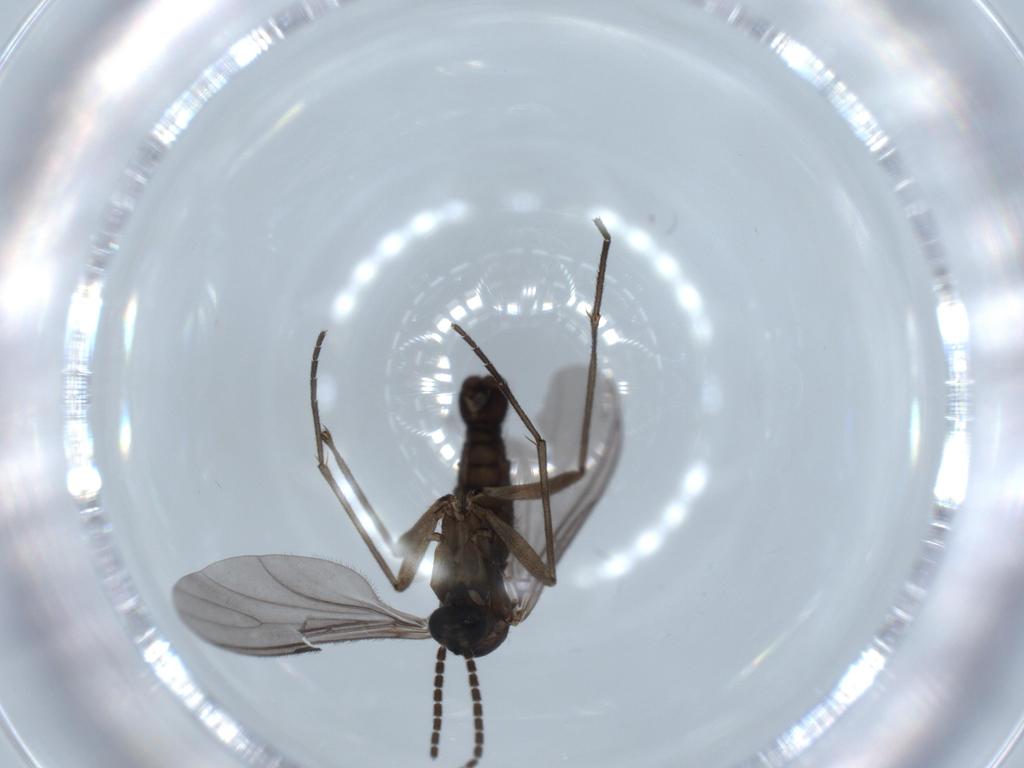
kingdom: Animalia
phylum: Arthropoda
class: Insecta
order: Diptera
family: Sciaridae
